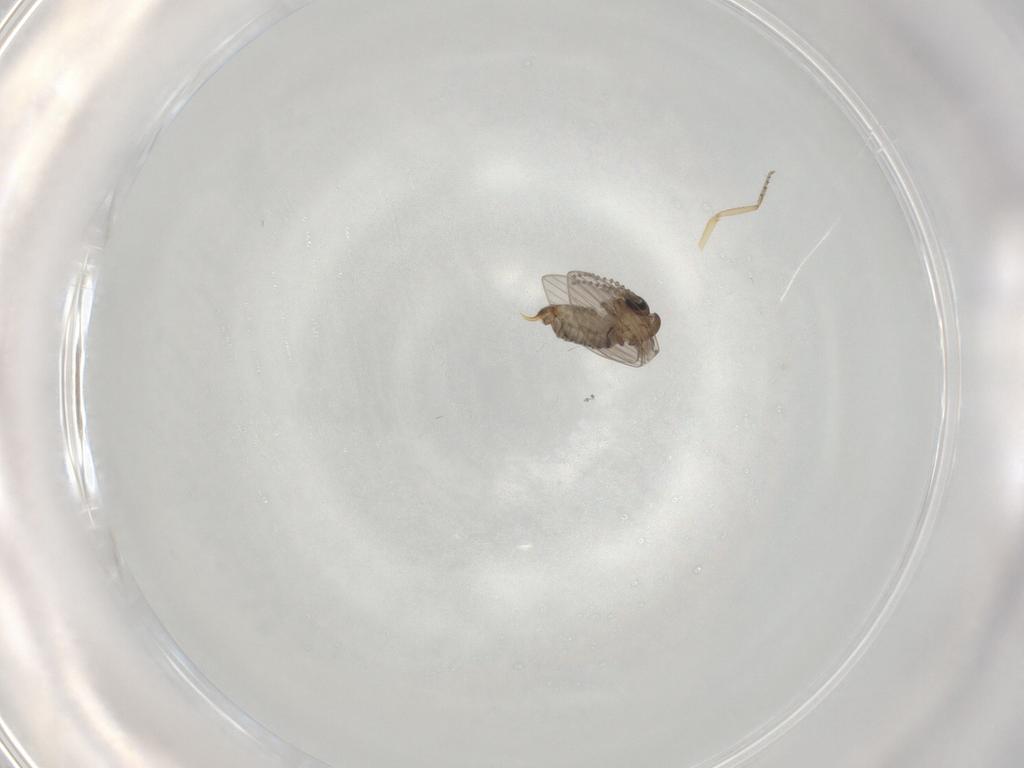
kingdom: Animalia
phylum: Arthropoda
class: Insecta
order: Diptera
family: Psychodidae
